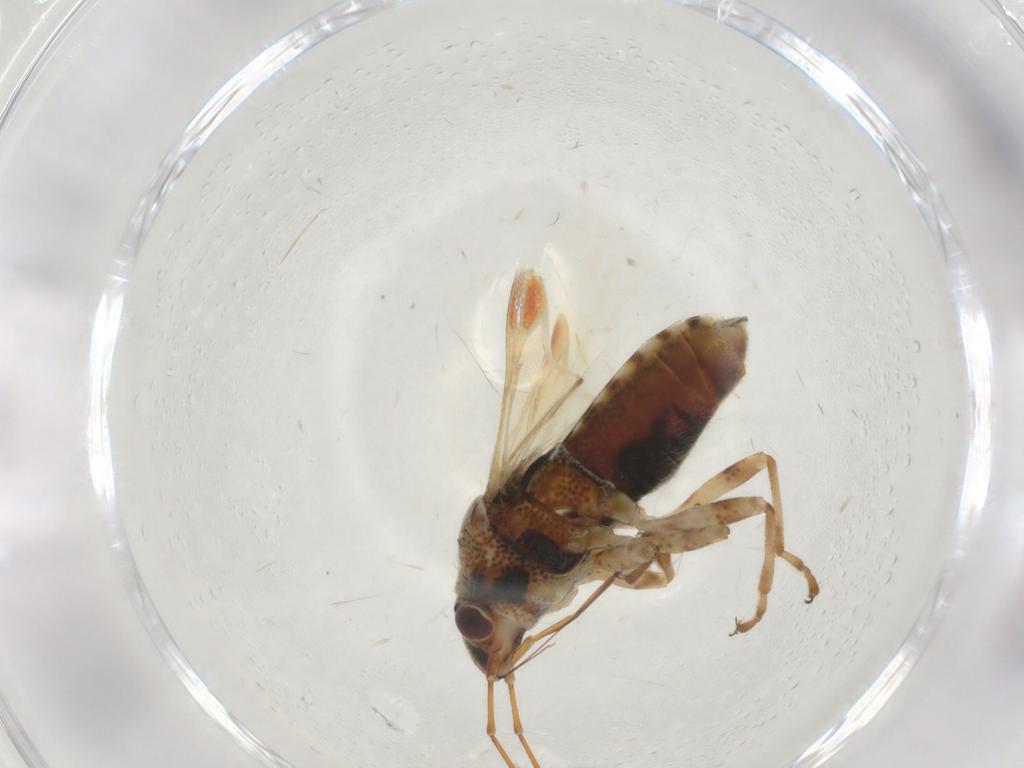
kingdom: Animalia
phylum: Arthropoda
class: Insecta
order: Hemiptera
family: Lygaeidae
